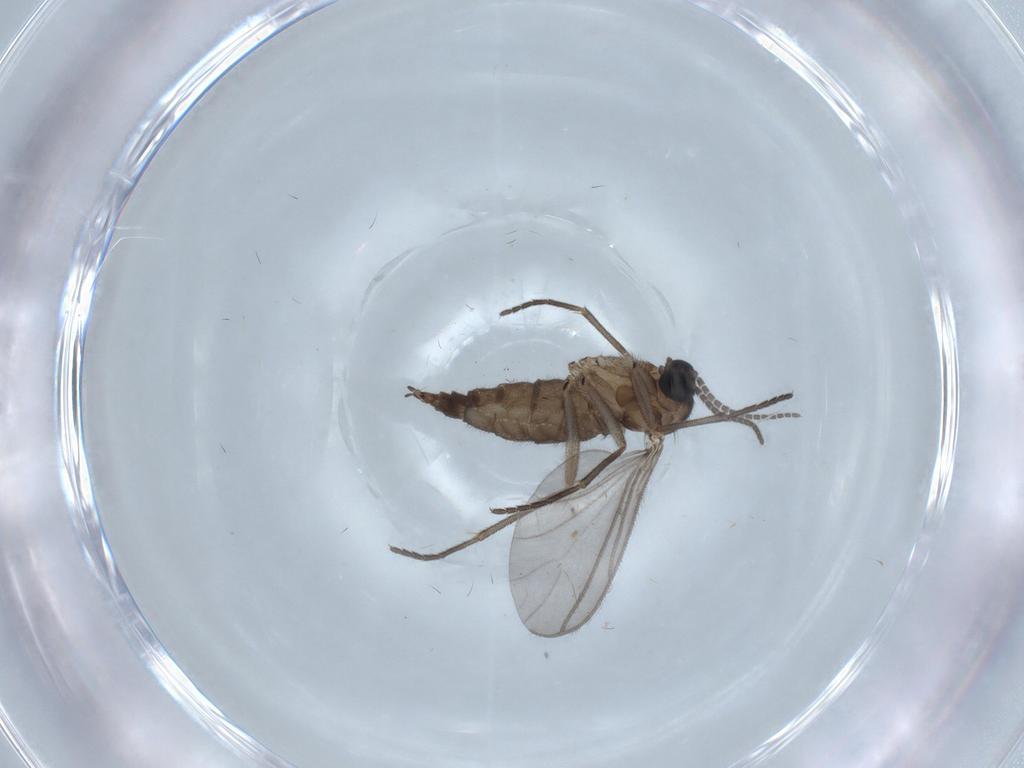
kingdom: Animalia
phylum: Arthropoda
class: Insecta
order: Diptera
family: Sciaridae
